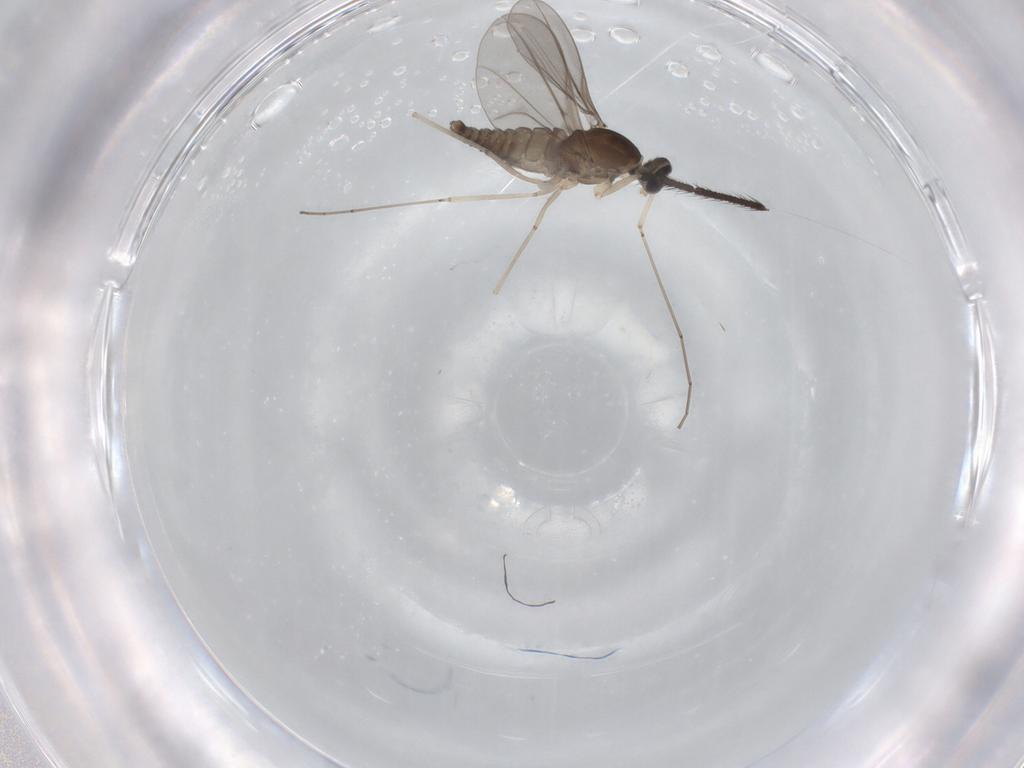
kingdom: Animalia
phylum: Arthropoda
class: Insecta
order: Diptera
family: Cecidomyiidae
